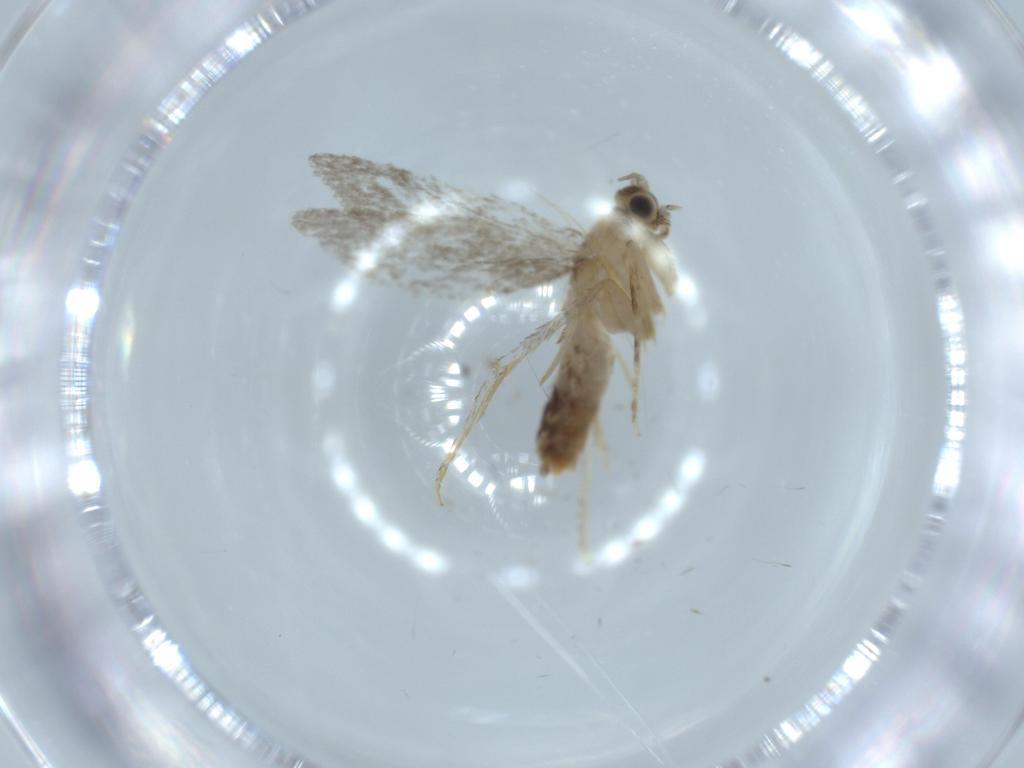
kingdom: Animalia
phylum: Arthropoda
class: Insecta
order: Lepidoptera
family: Tineidae
